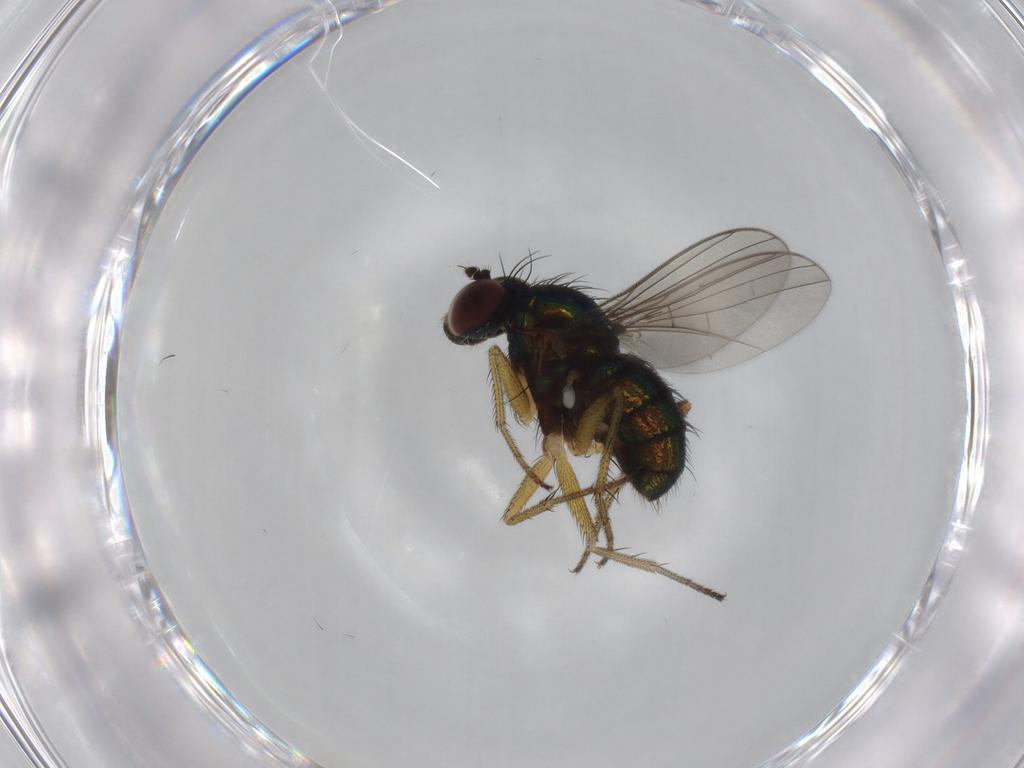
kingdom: Animalia
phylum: Arthropoda
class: Insecta
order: Diptera
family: Dolichopodidae
